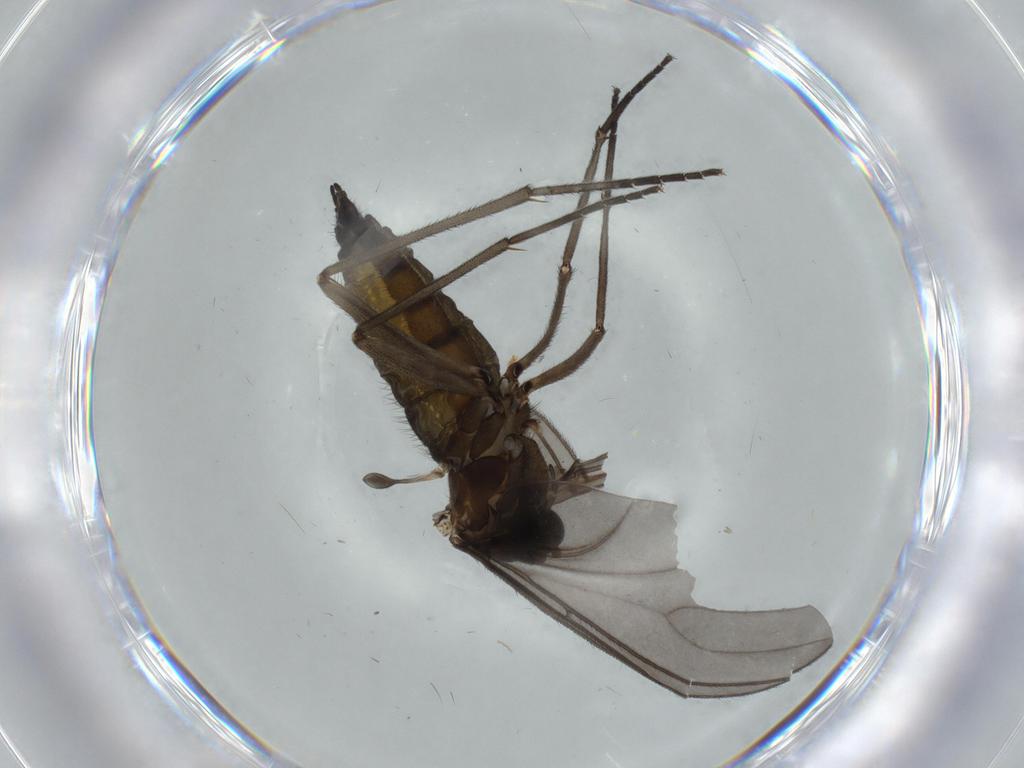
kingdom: Animalia
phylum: Arthropoda
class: Insecta
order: Diptera
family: Sciaridae
